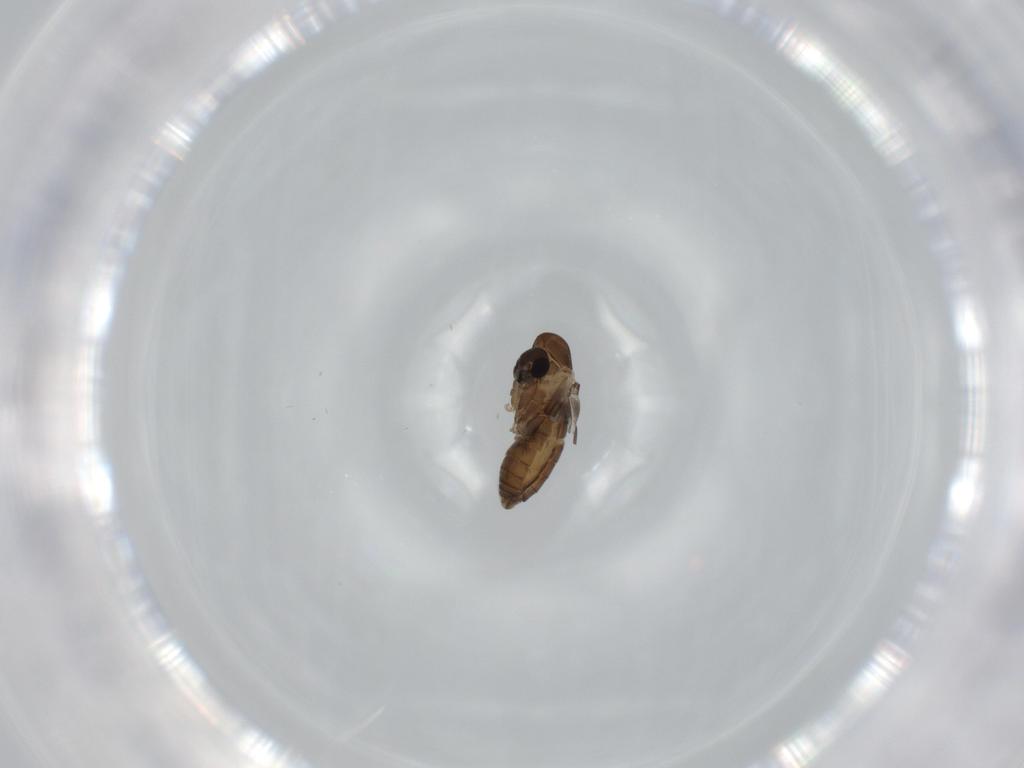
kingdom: Animalia
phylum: Arthropoda
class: Insecta
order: Diptera
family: Psychodidae
